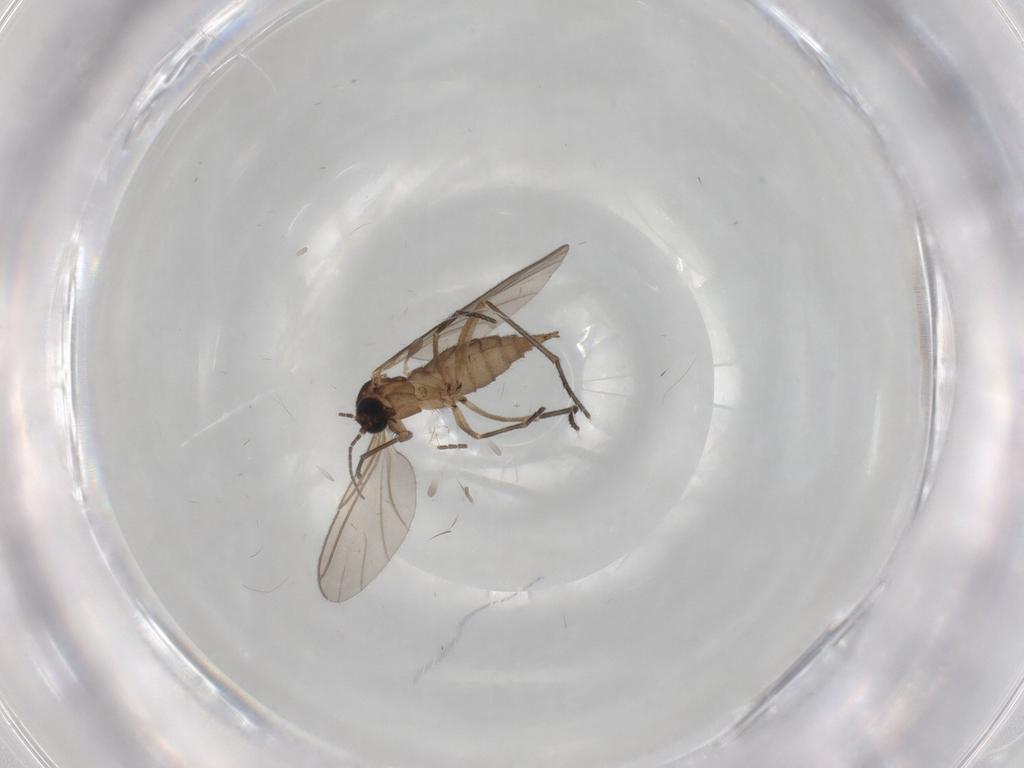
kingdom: Animalia
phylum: Arthropoda
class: Insecta
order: Diptera
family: Sciaridae
